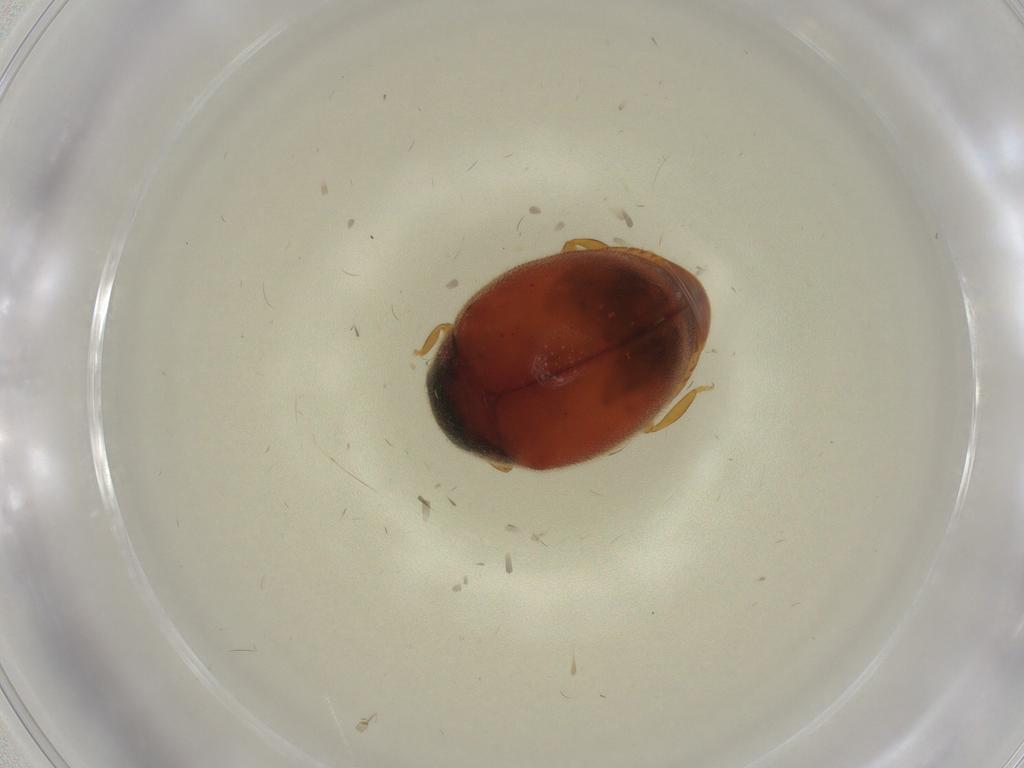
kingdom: Animalia
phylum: Arthropoda
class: Insecta
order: Coleoptera
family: Coccinellidae
